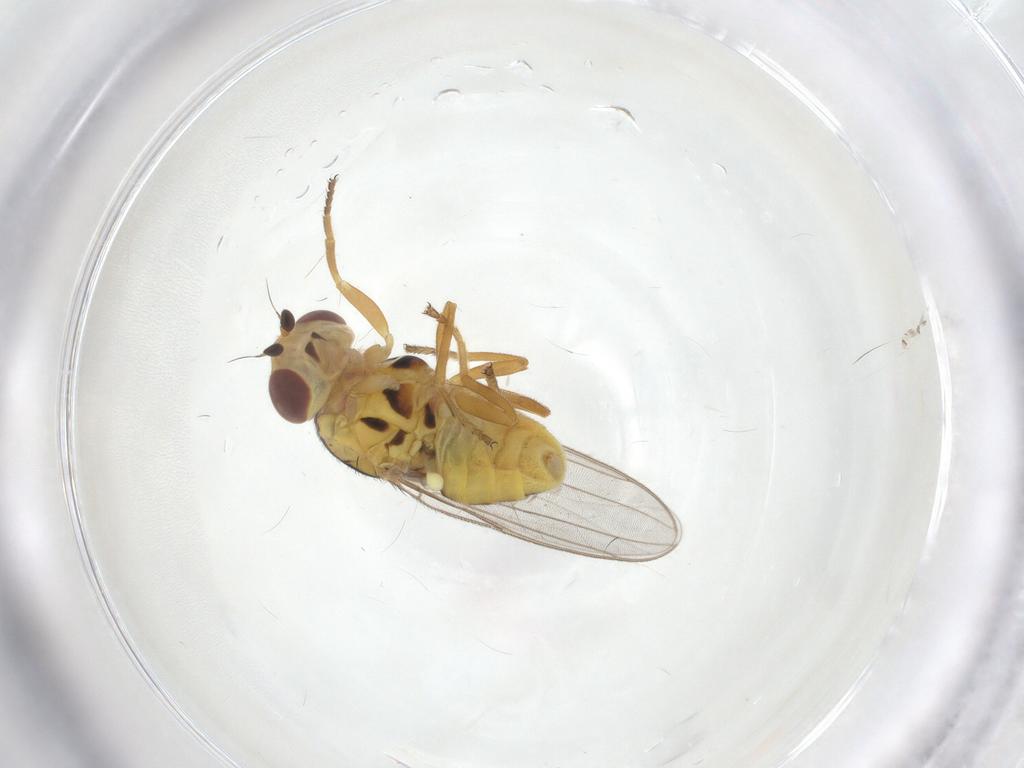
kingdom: Animalia
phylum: Arthropoda
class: Insecta
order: Diptera
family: Chloropidae
